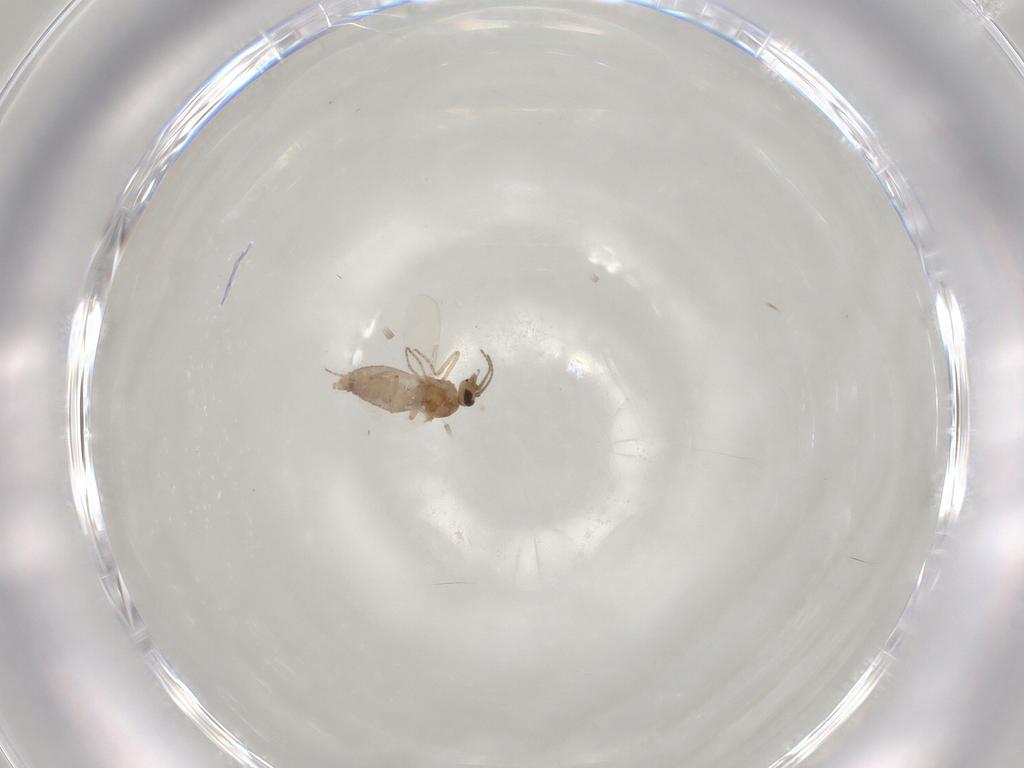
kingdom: Animalia
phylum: Arthropoda
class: Insecta
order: Diptera
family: Ceratopogonidae
